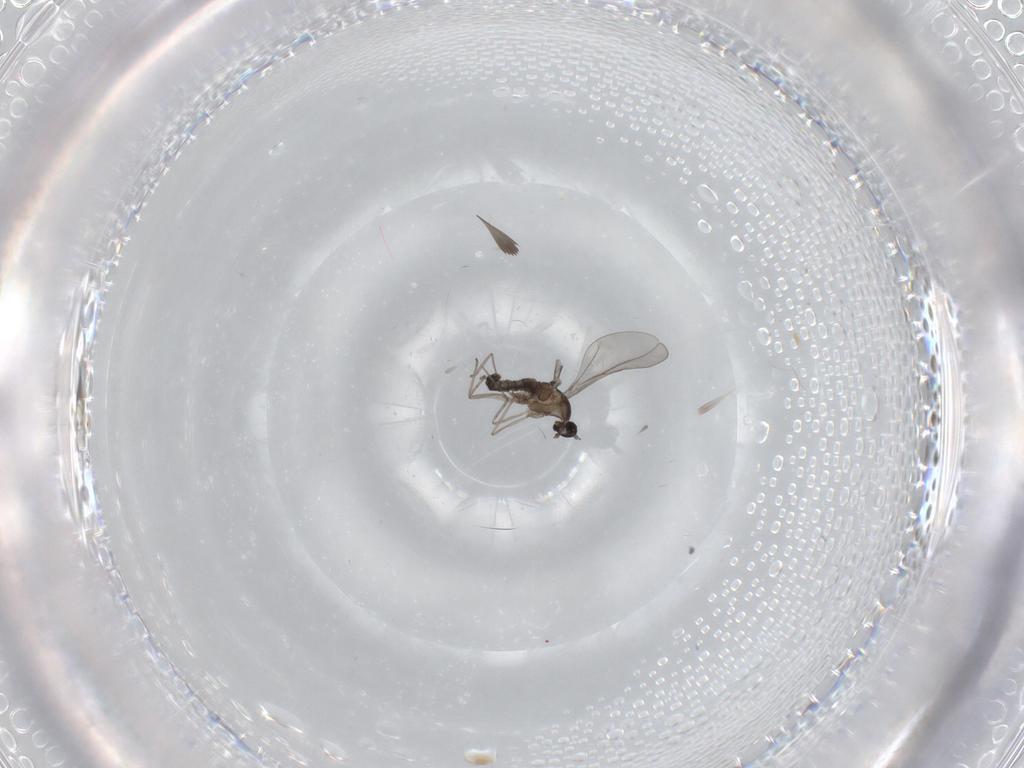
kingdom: Animalia
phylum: Arthropoda
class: Insecta
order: Diptera
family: Cecidomyiidae
